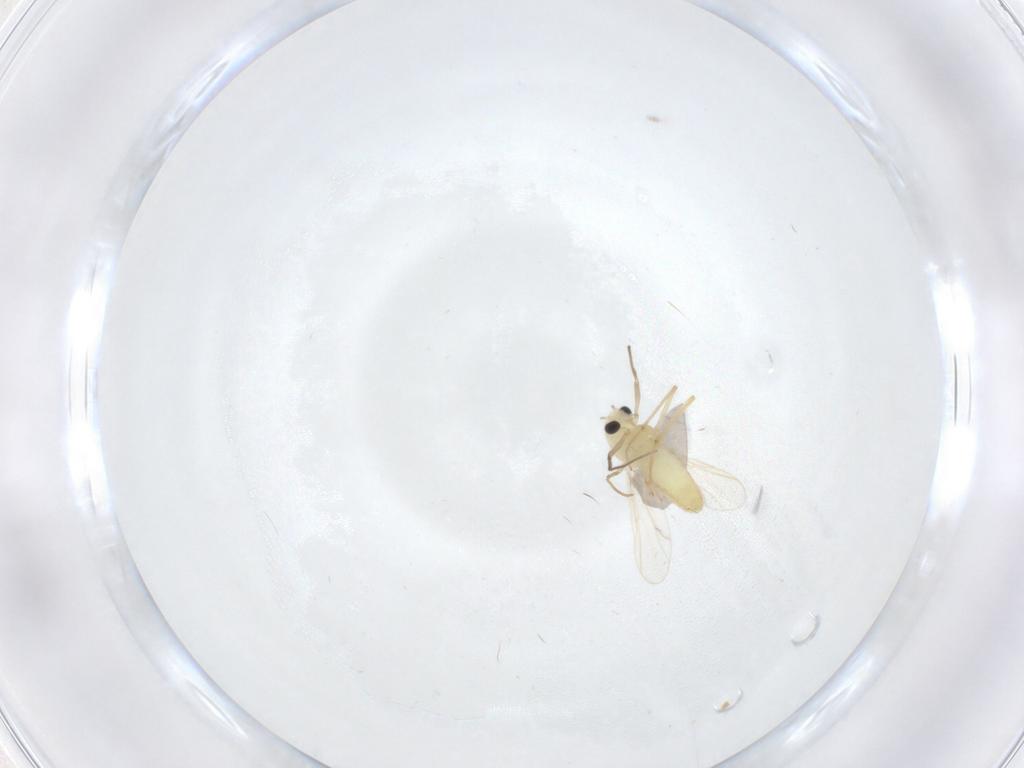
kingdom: Animalia
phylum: Arthropoda
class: Insecta
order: Diptera
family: Chironomidae
